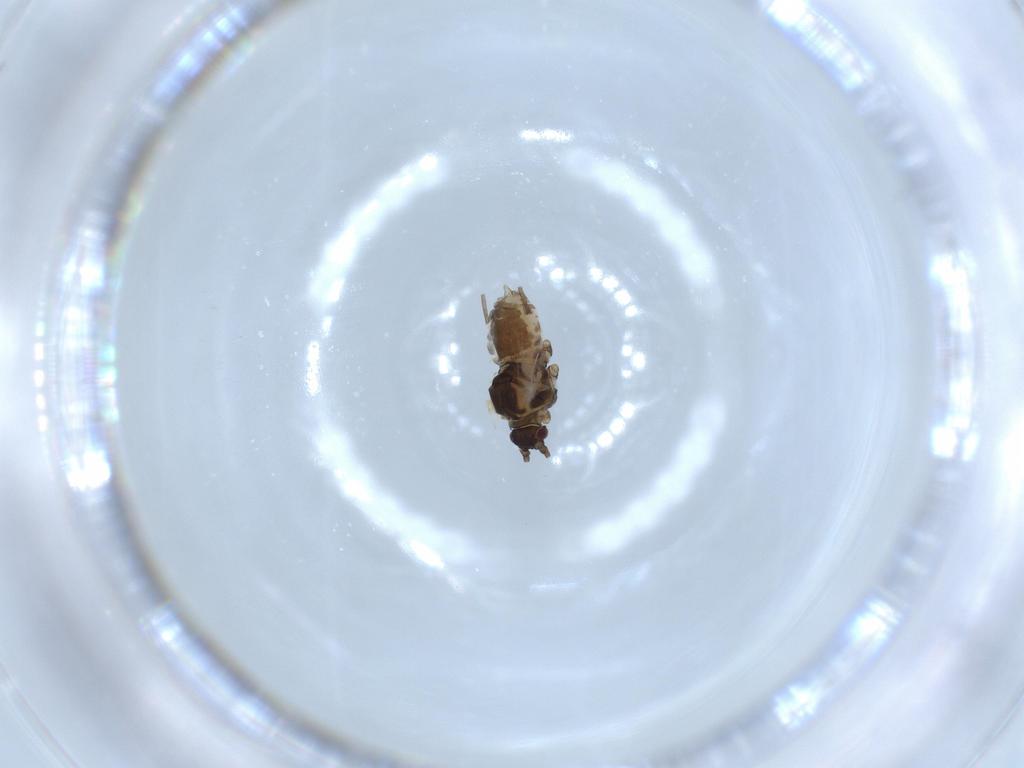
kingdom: Animalia
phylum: Arthropoda
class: Insecta
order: Hemiptera
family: Aphididae
